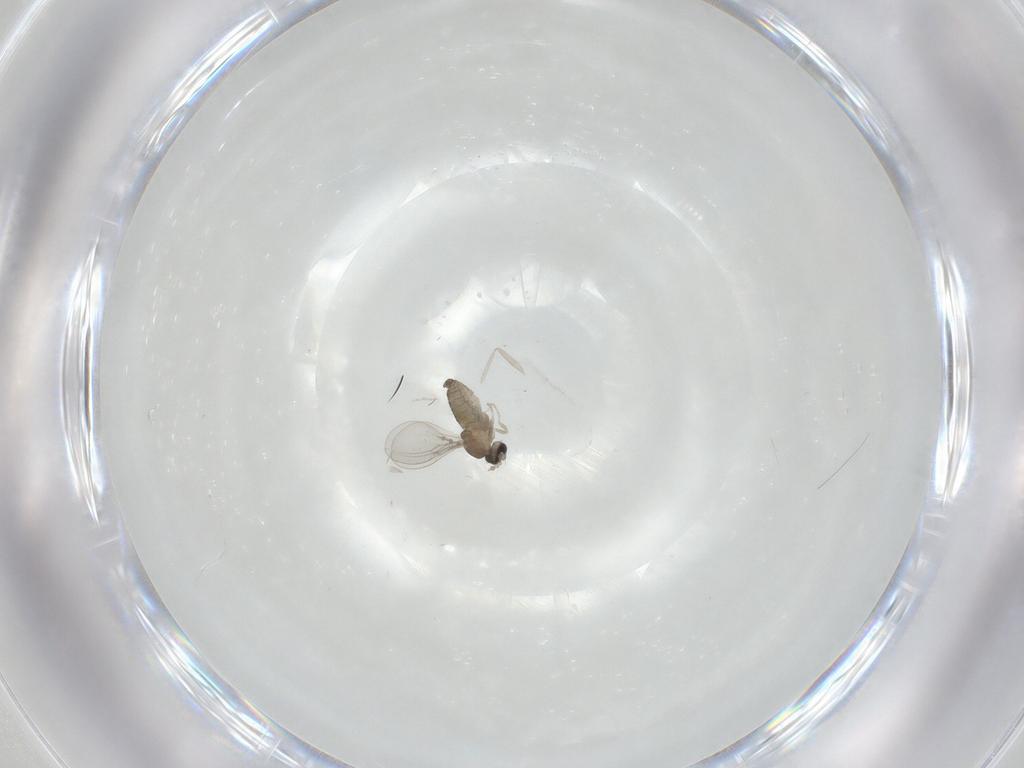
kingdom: Animalia
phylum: Arthropoda
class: Insecta
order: Diptera
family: Cecidomyiidae
